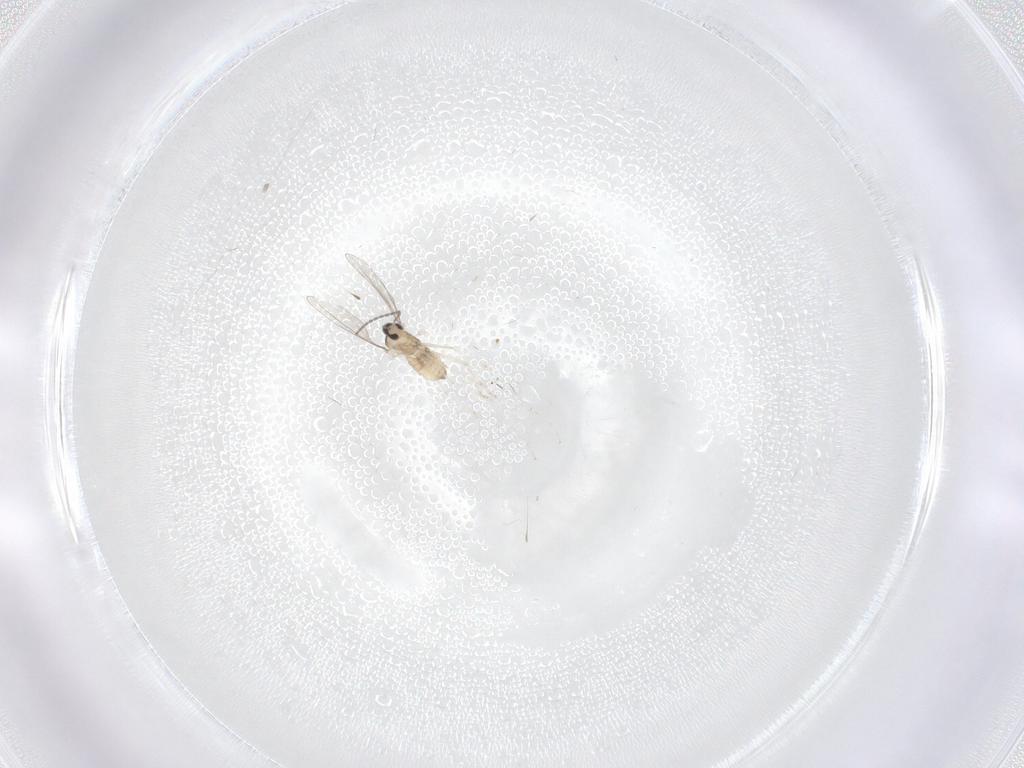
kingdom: Animalia
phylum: Arthropoda
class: Insecta
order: Diptera
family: Cecidomyiidae
